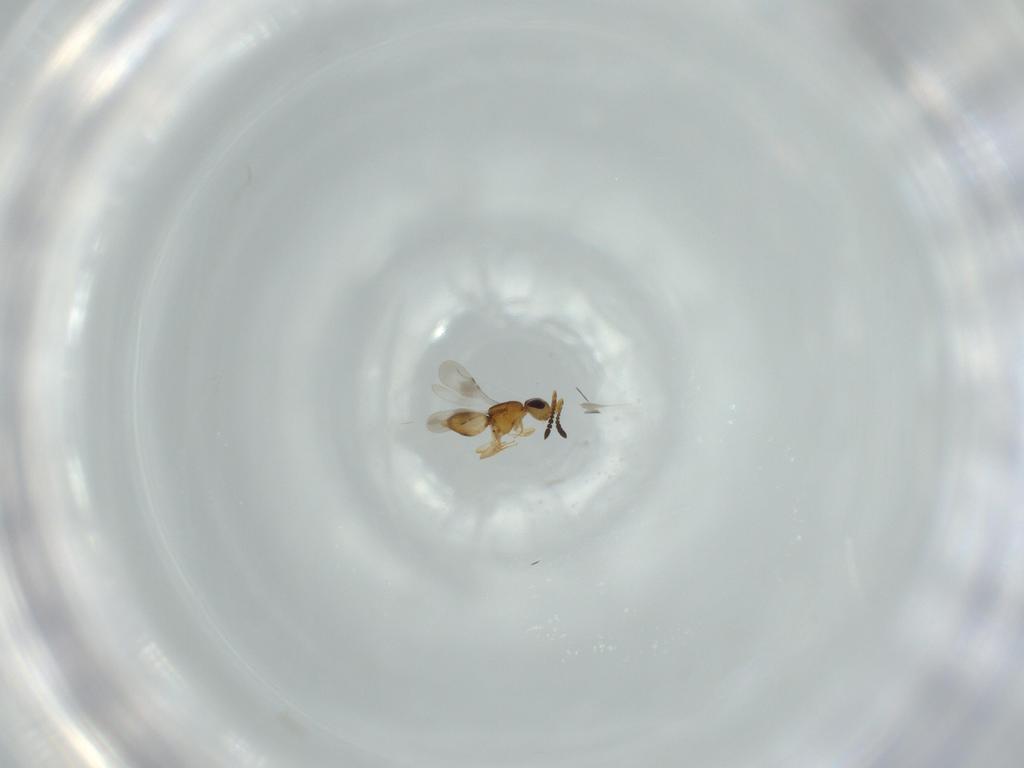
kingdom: Animalia
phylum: Arthropoda
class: Insecta
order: Hymenoptera
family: Ceraphronidae
